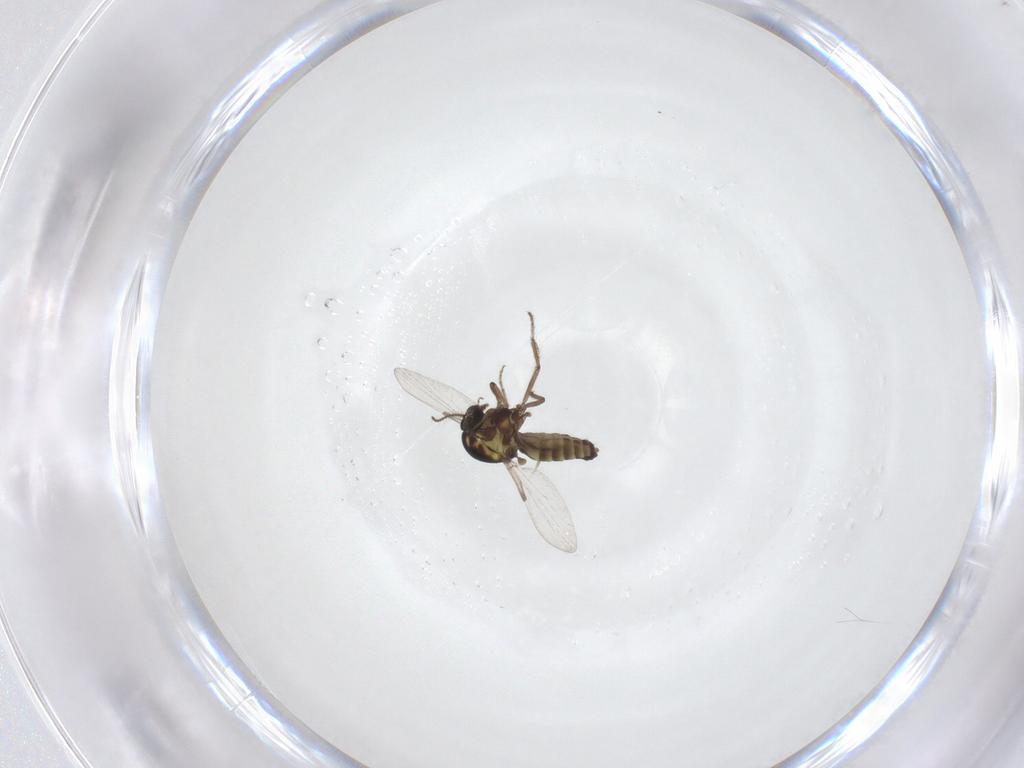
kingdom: Animalia
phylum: Arthropoda
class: Insecta
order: Diptera
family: Ceratopogonidae
